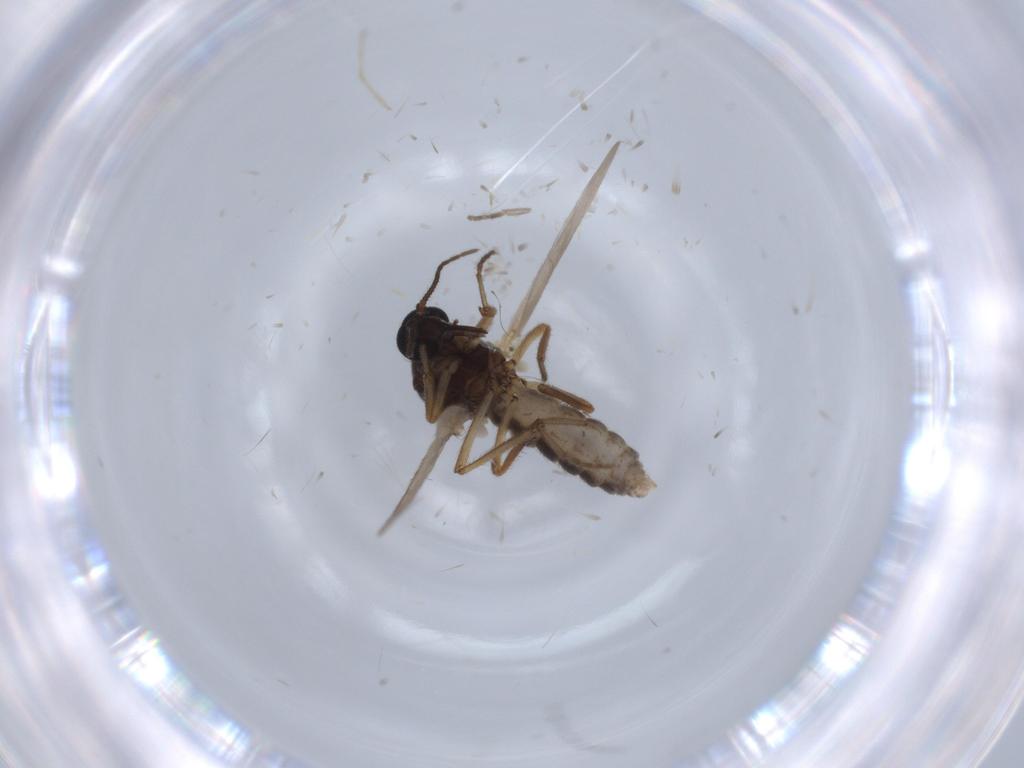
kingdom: Animalia
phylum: Arthropoda
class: Insecta
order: Diptera
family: Ceratopogonidae
